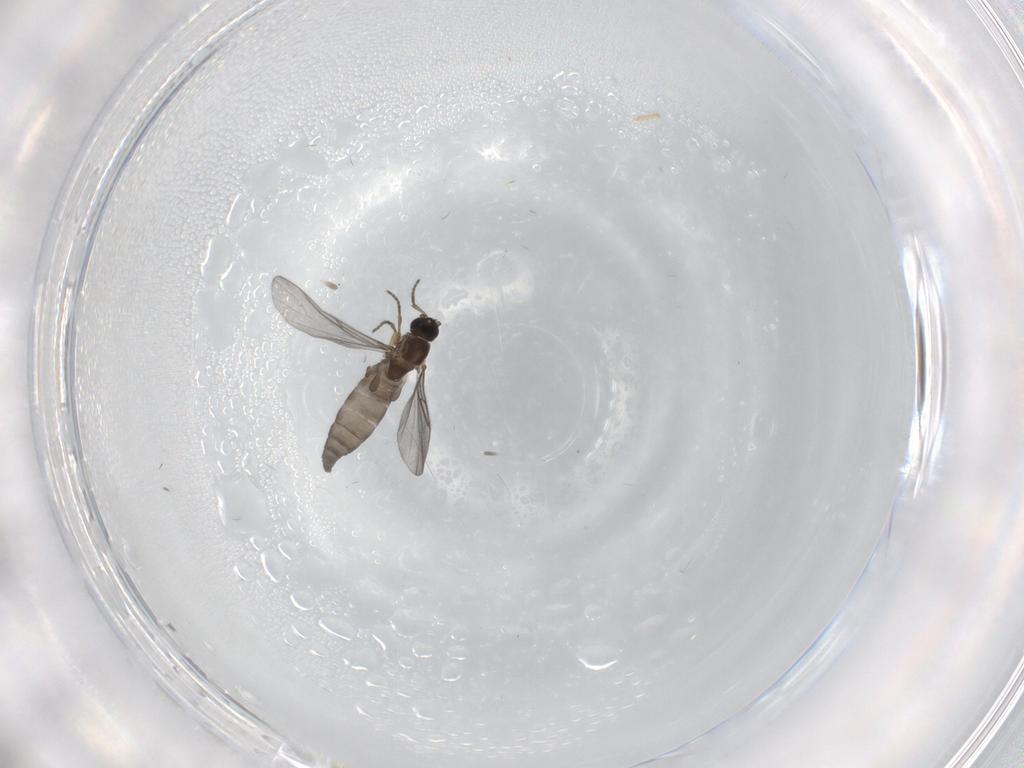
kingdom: Animalia
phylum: Arthropoda
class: Insecta
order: Diptera
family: Sciaridae
